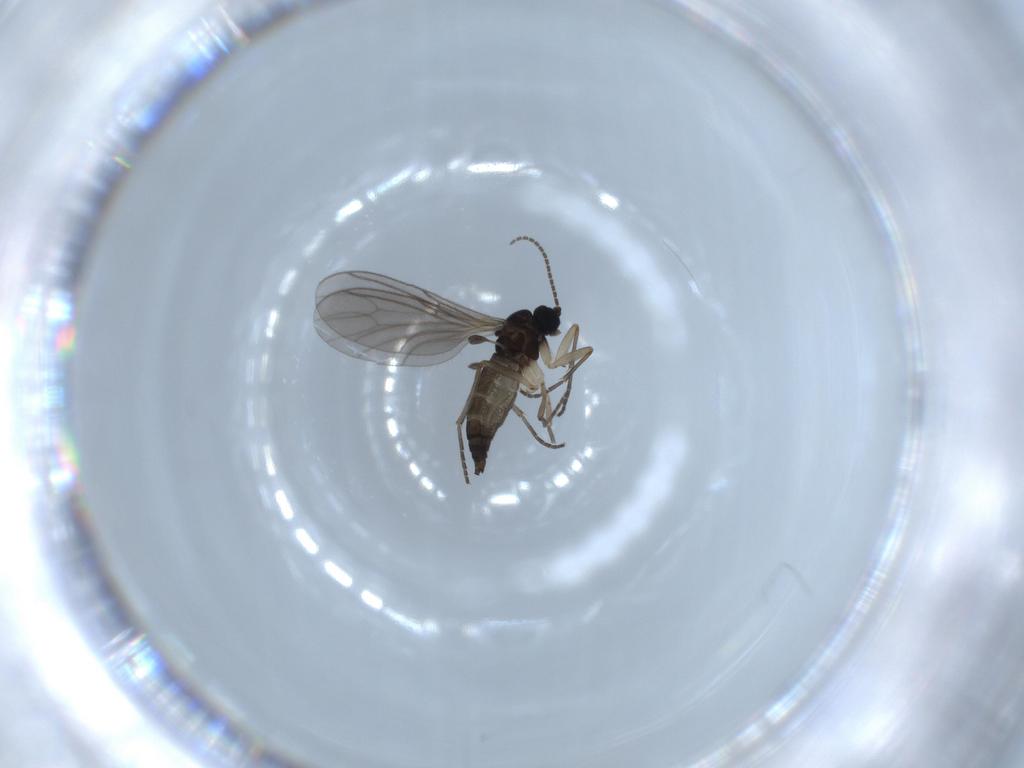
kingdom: Animalia
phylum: Arthropoda
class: Insecta
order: Diptera
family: Sciaridae
